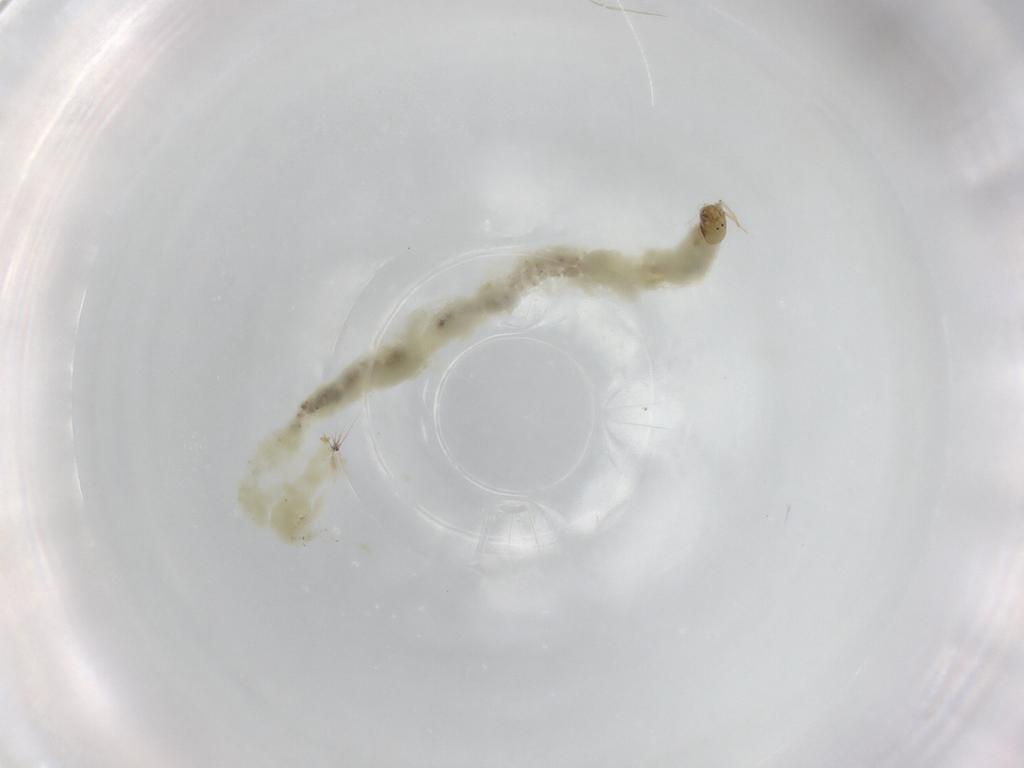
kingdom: Animalia
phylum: Arthropoda
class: Insecta
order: Diptera
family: Chironomidae
